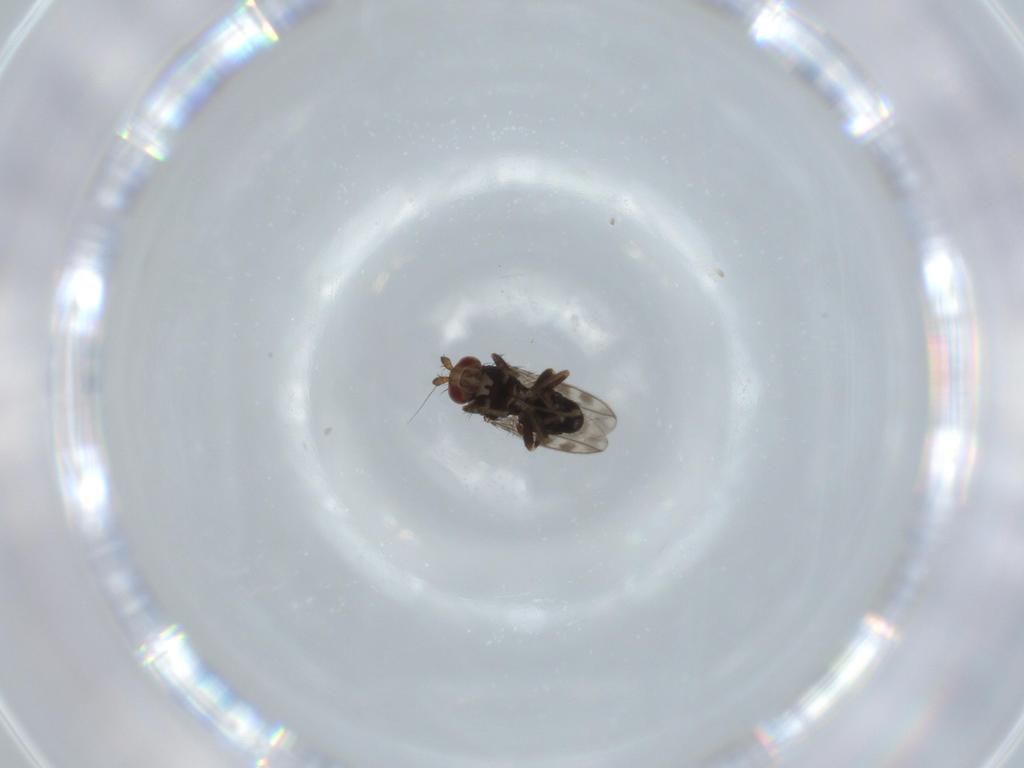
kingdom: Animalia
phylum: Arthropoda
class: Insecta
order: Diptera
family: Sphaeroceridae
